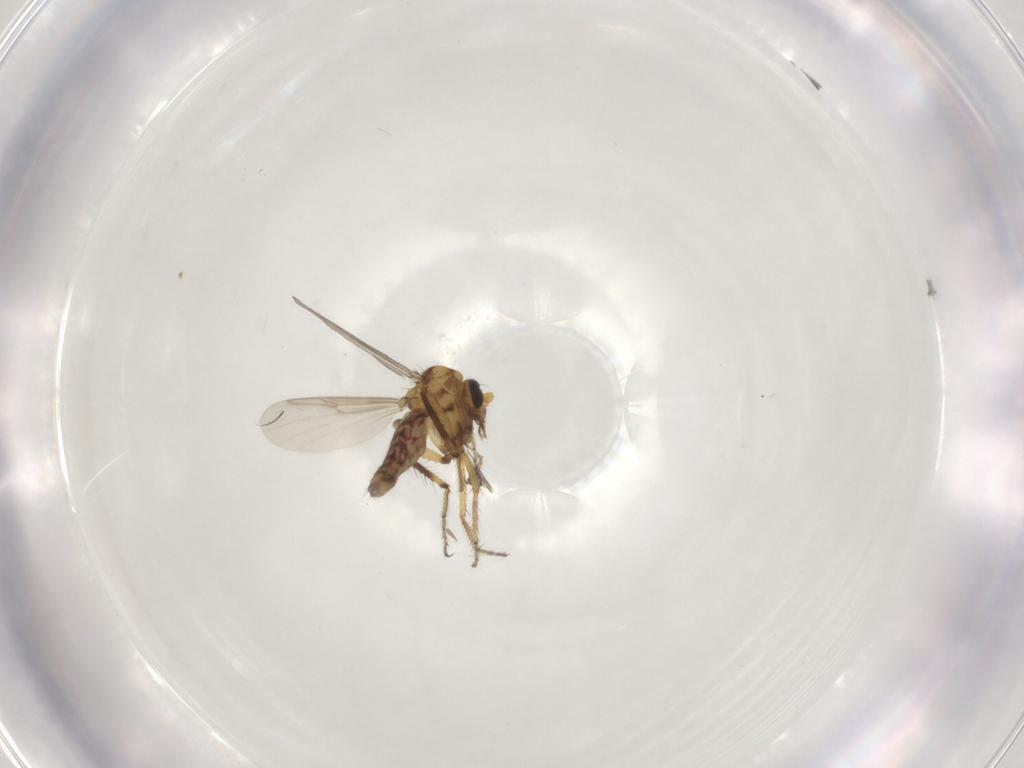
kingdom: Animalia
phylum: Arthropoda
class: Insecta
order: Diptera
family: Ceratopogonidae
